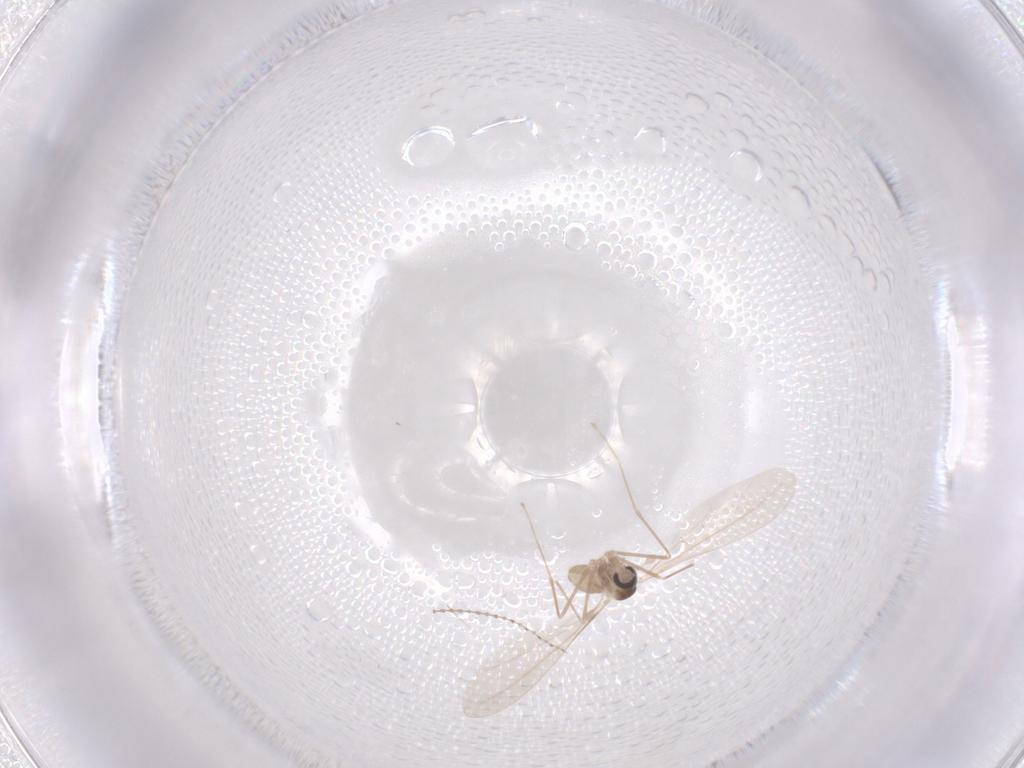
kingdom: Animalia
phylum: Arthropoda
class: Insecta
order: Diptera
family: Cecidomyiidae
